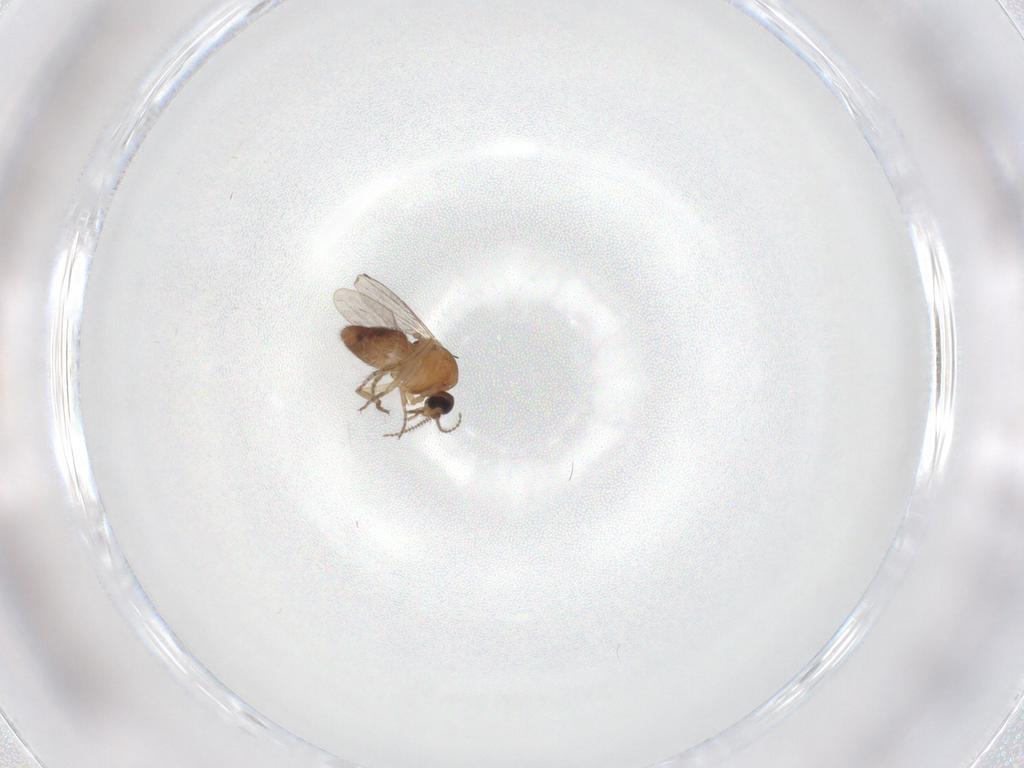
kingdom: Animalia
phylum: Arthropoda
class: Insecta
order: Diptera
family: Ceratopogonidae
